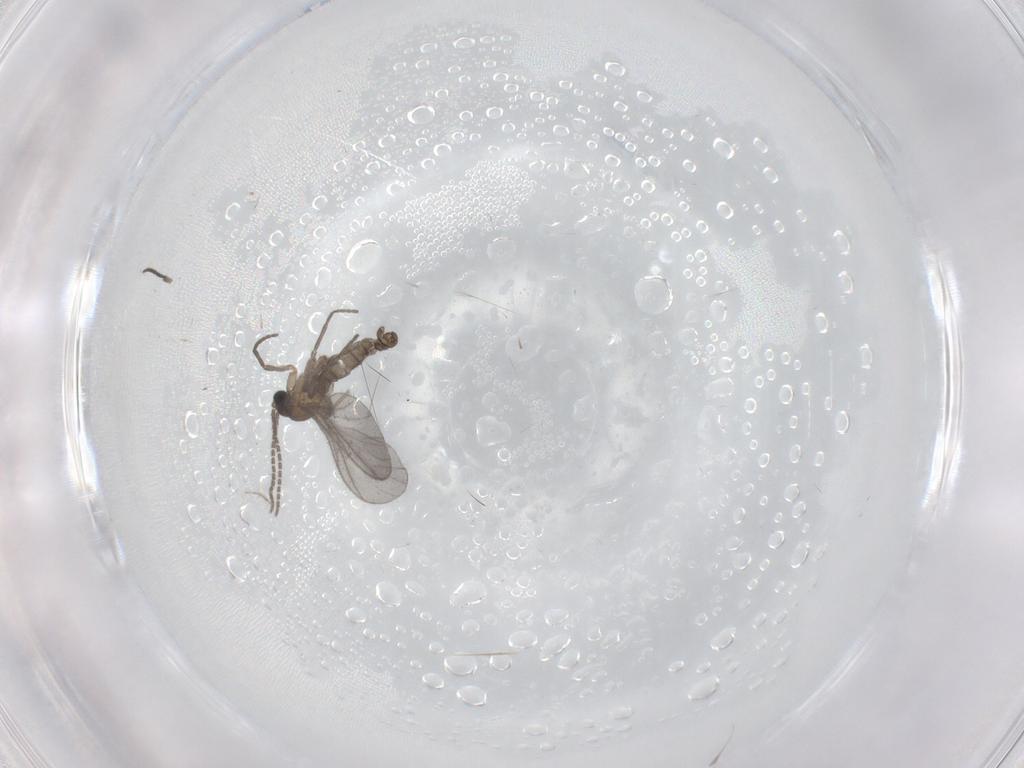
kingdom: Animalia
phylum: Arthropoda
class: Insecta
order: Diptera
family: Sciaridae
